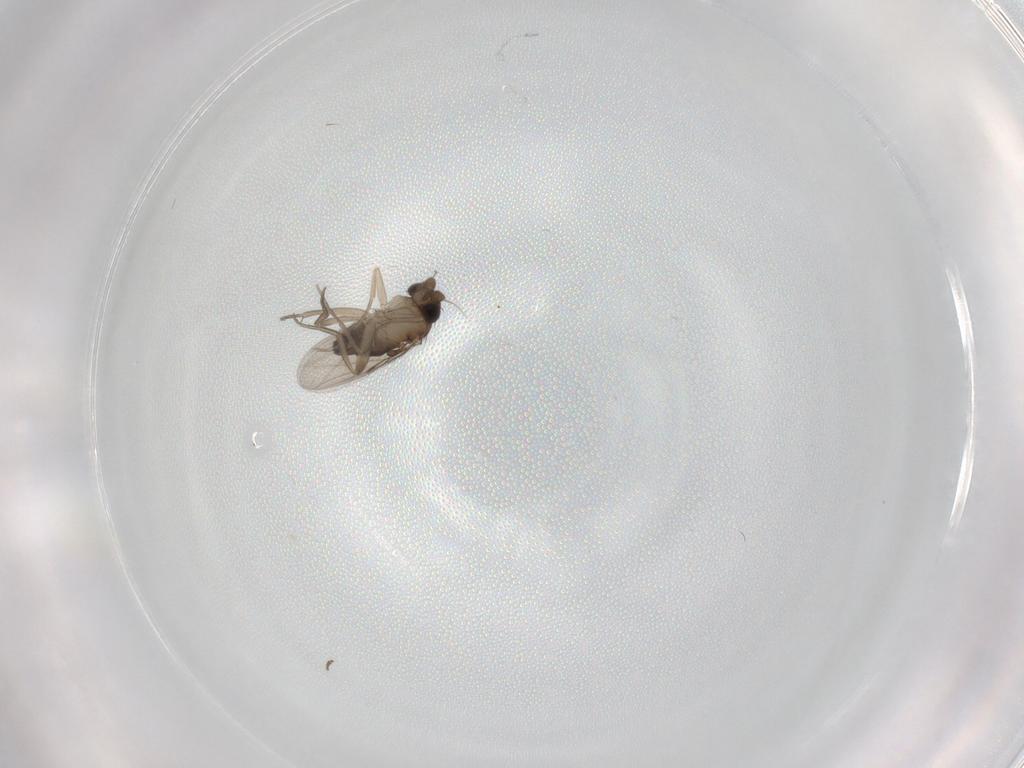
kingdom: Animalia
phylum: Arthropoda
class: Insecta
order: Diptera
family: Ceratopogonidae
